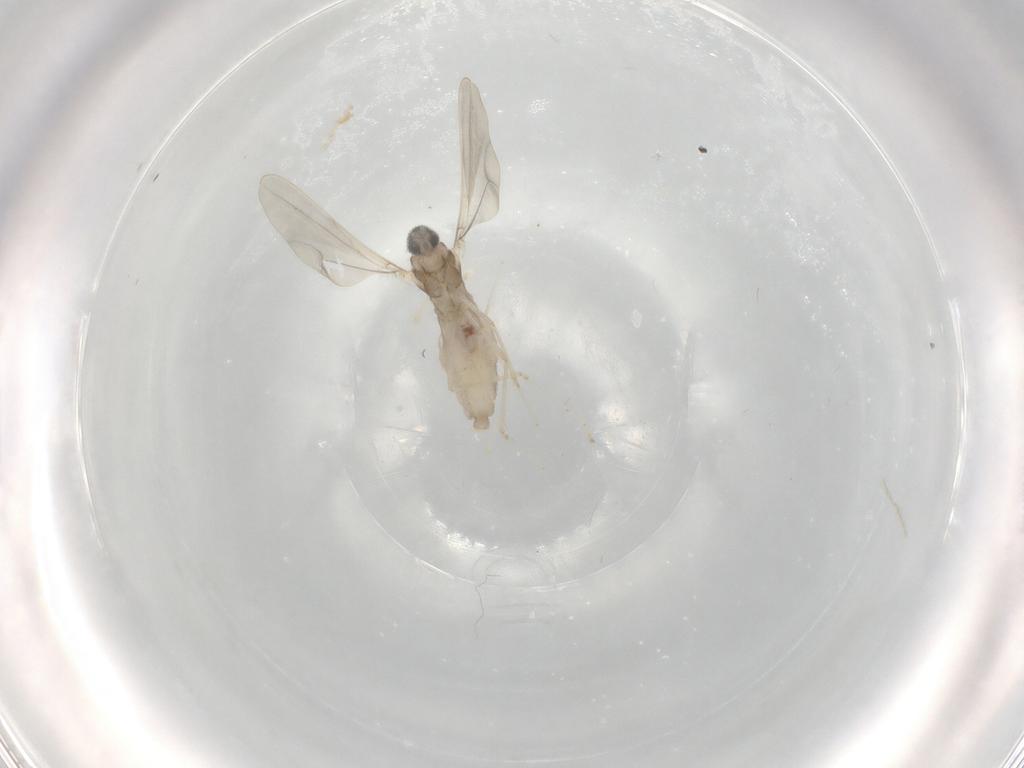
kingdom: Animalia
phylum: Arthropoda
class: Insecta
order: Diptera
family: Cecidomyiidae
